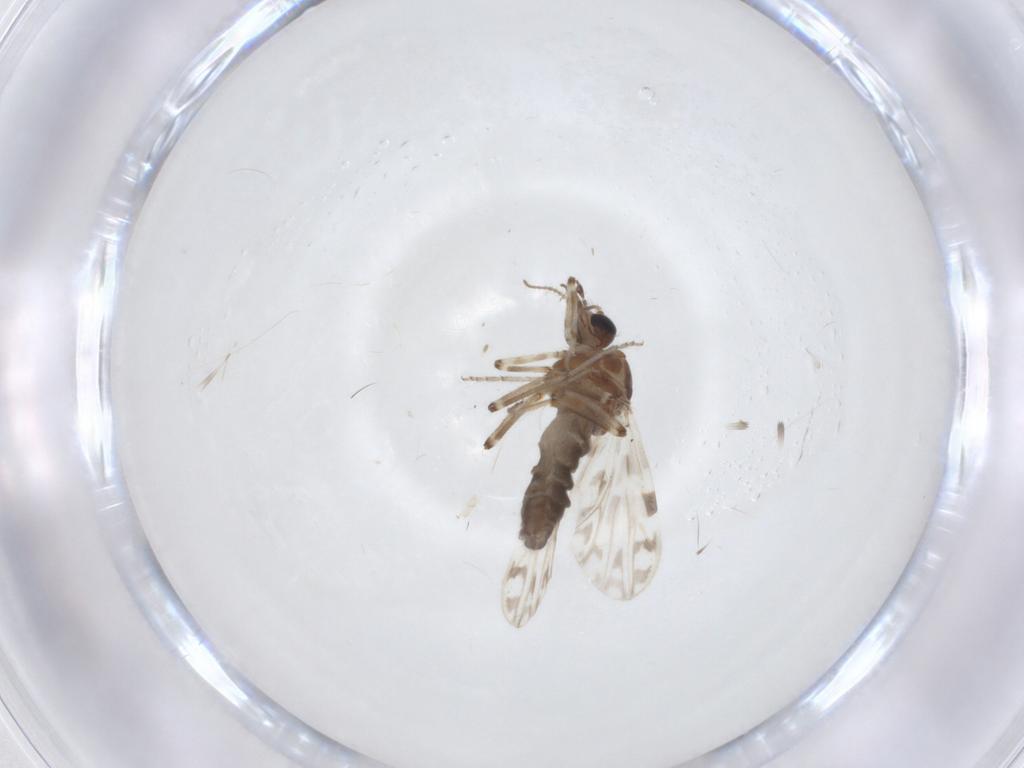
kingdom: Animalia
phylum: Arthropoda
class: Insecta
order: Diptera
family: Ceratopogonidae
